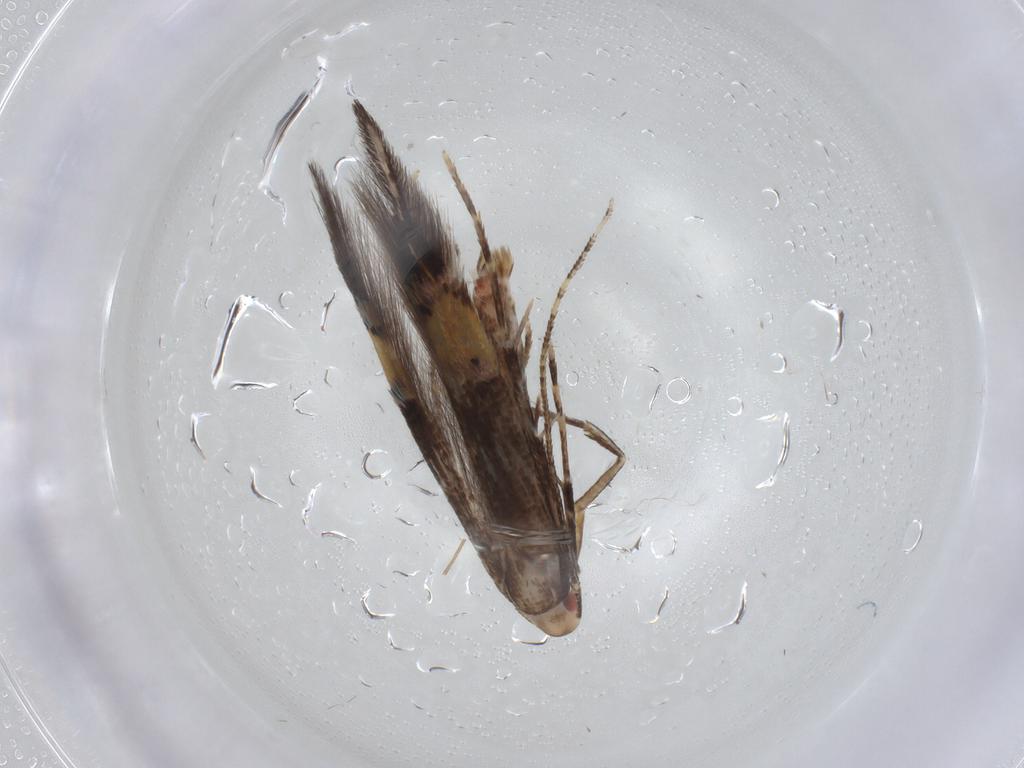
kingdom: Animalia
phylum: Arthropoda
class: Insecta
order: Lepidoptera
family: Cosmopterigidae
